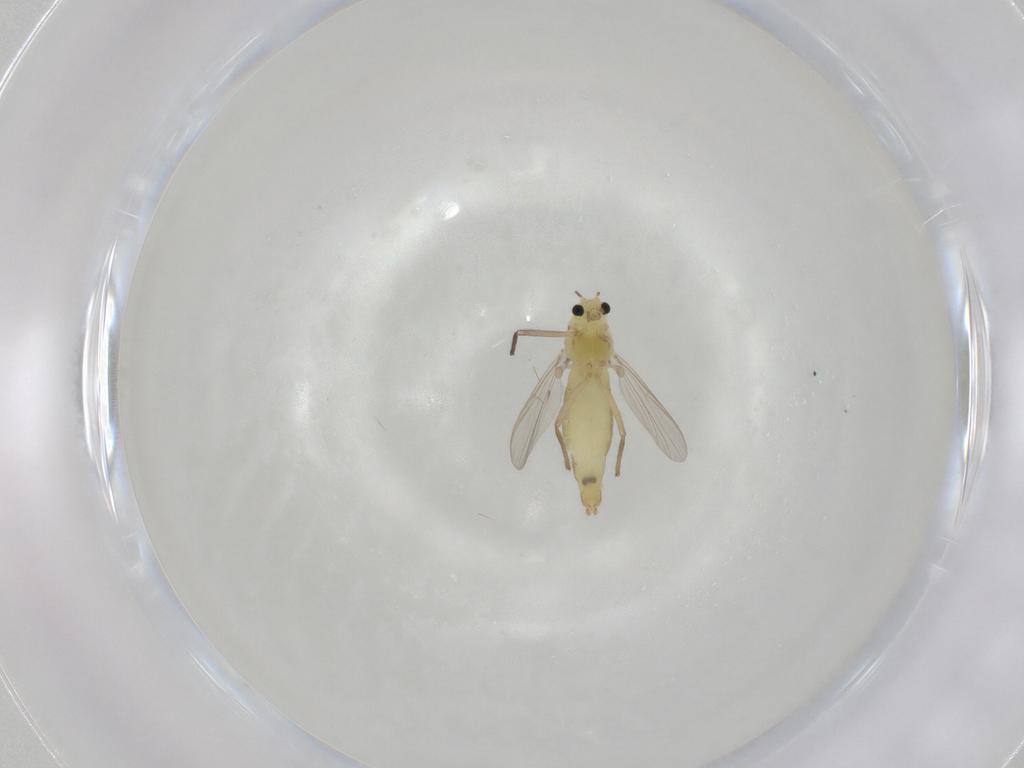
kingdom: Animalia
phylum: Arthropoda
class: Insecta
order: Diptera
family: Chironomidae
